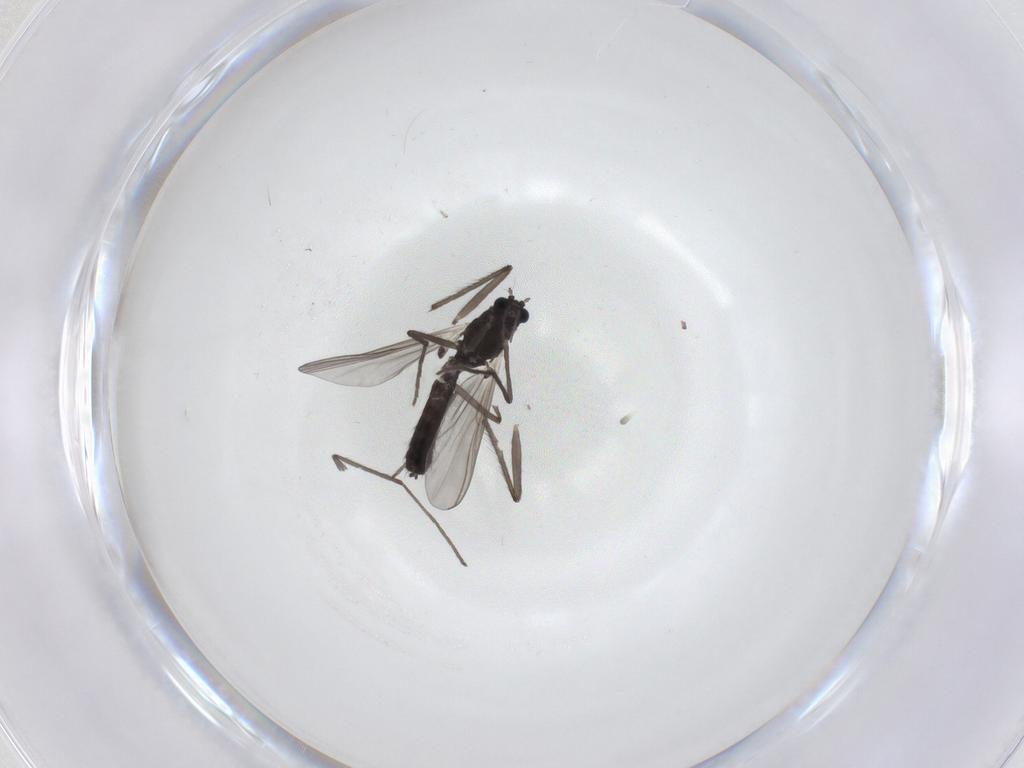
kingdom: Animalia
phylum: Arthropoda
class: Insecta
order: Diptera
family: Chironomidae
